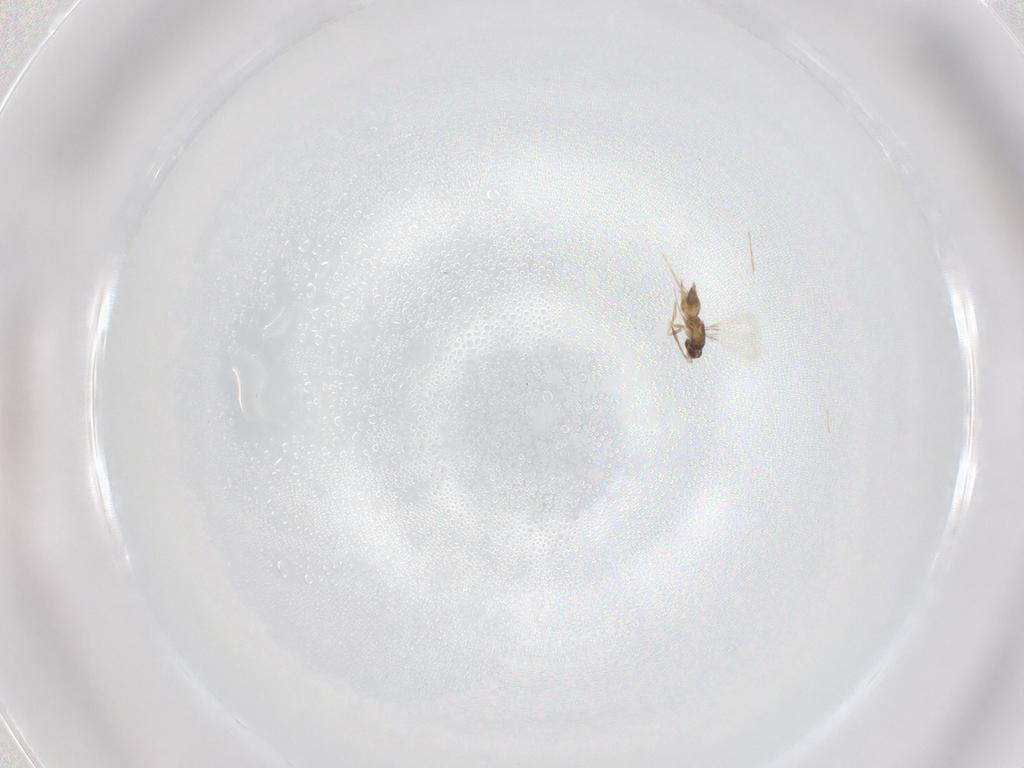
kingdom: Animalia
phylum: Arthropoda
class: Insecta
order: Hymenoptera
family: Mymaridae
